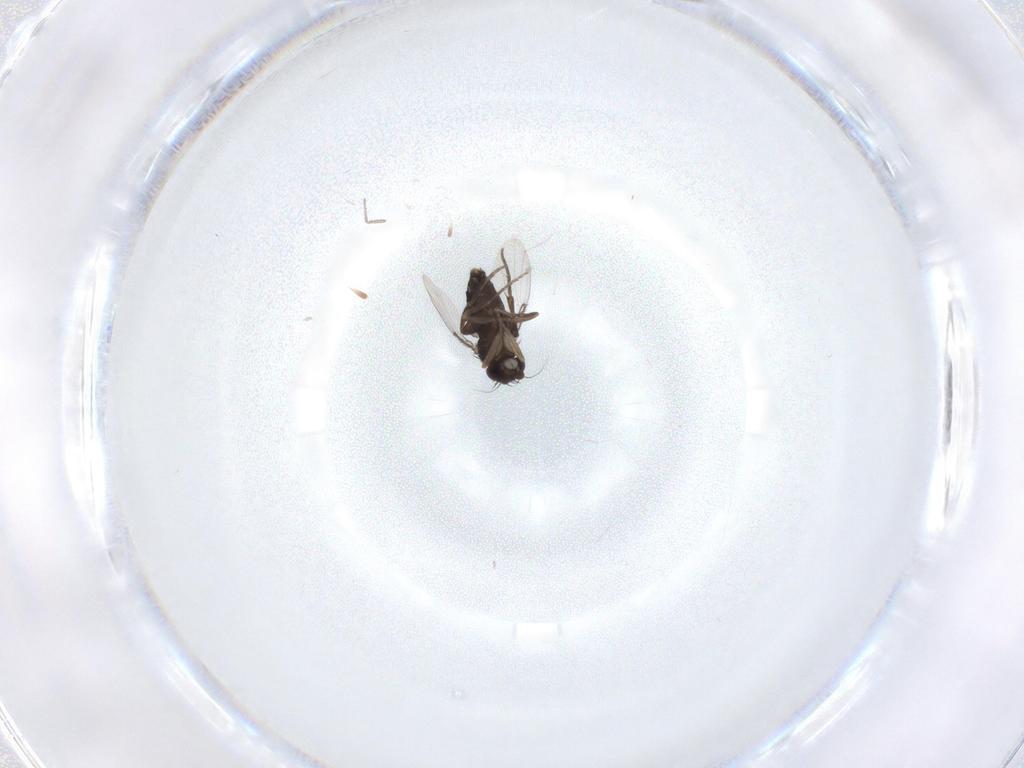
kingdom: Animalia
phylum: Arthropoda
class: Insecta
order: Diptera
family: Phoridae
